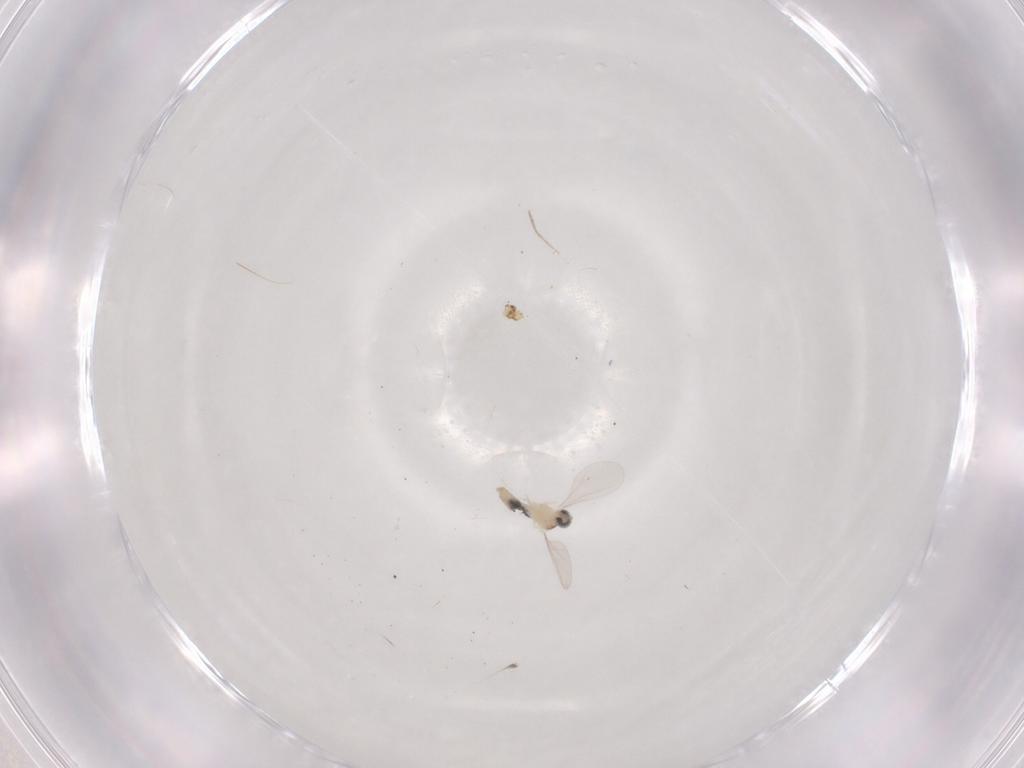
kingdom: Animalia
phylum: Arthropoda
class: Insecta
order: Diptera
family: Cecidomyiidae
